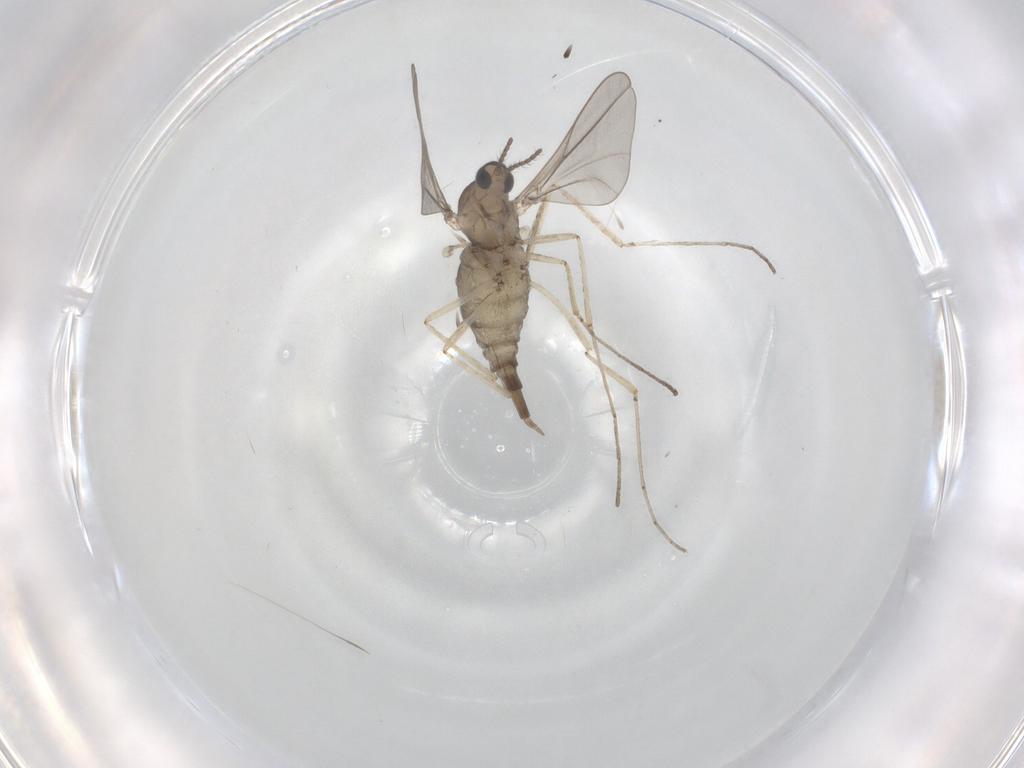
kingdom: Animalia
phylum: Arthropoda
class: Insecta
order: Diptera
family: Cecidomyiidae
